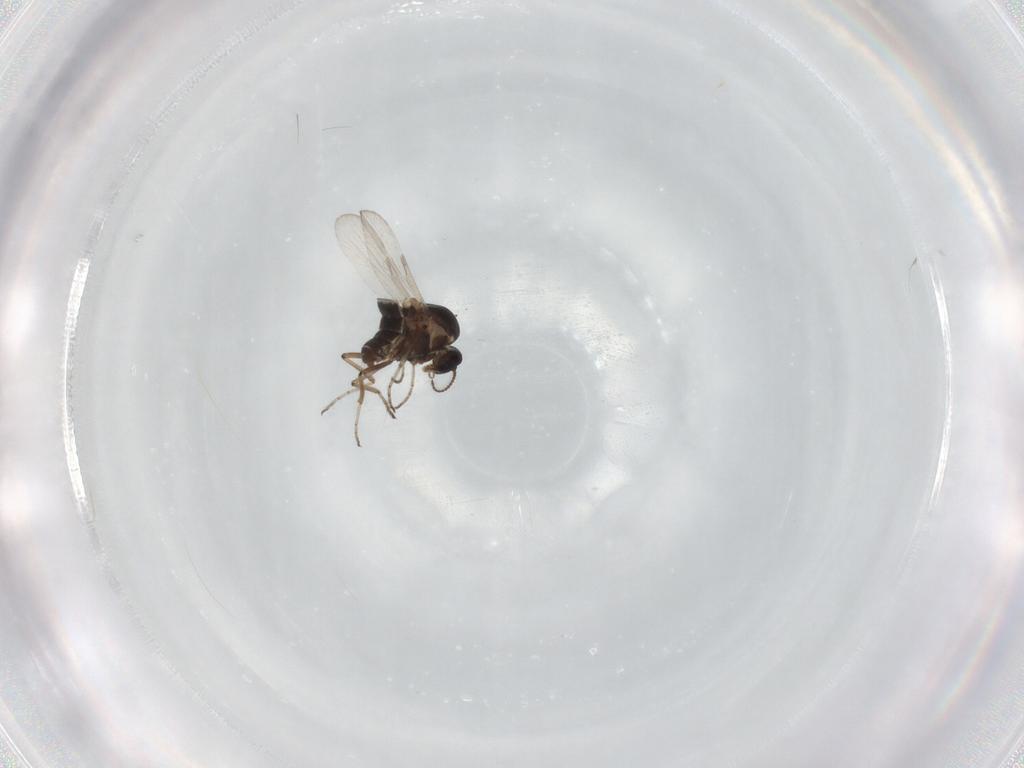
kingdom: Animalia
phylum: Arthropoda
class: Insecta
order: Diptera
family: Ceratopogonidae
